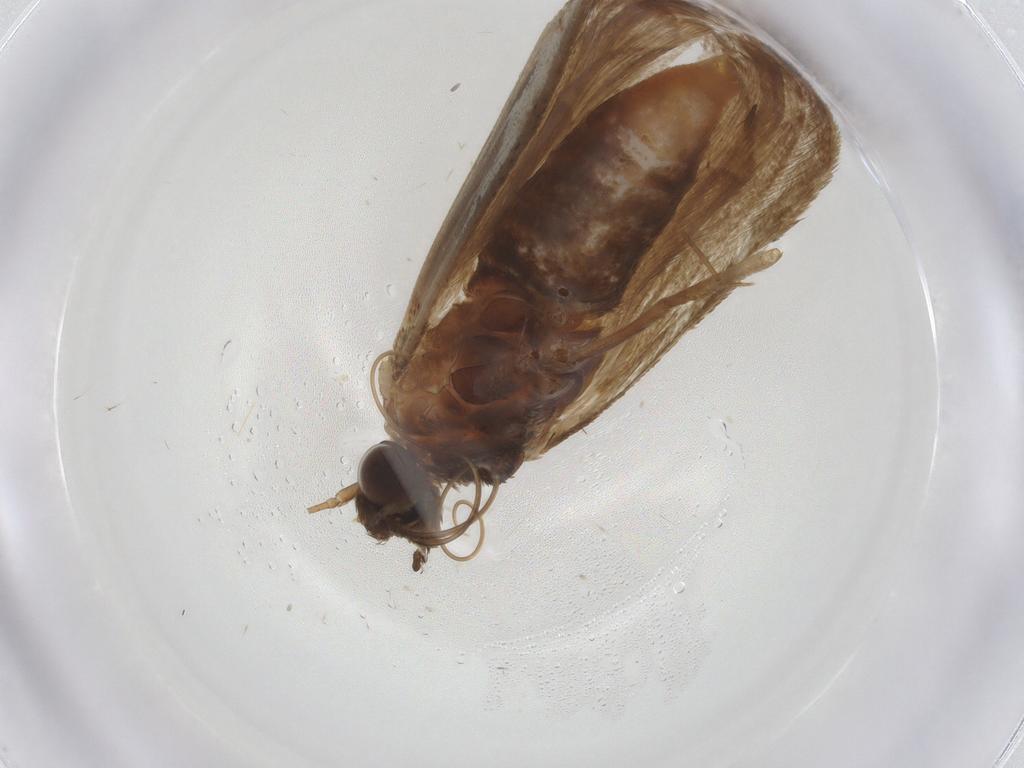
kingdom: Animalia
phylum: Arthropoda
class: Insecta
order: Lepidoptera
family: Pyralidae
